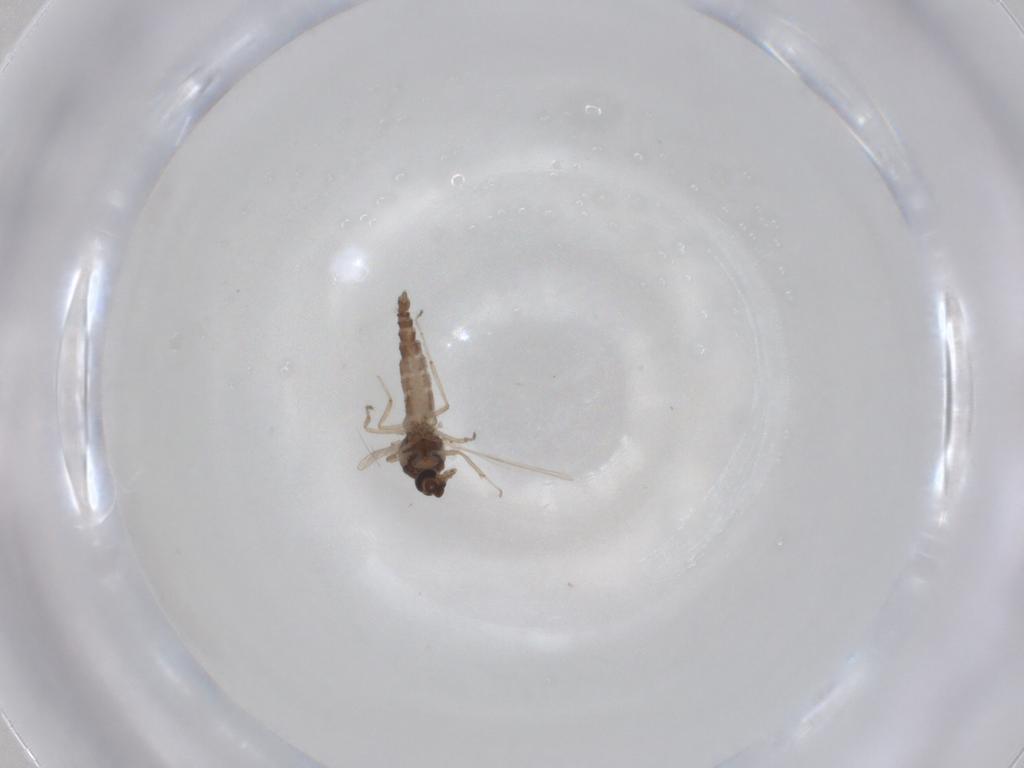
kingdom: Animalia
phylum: Arthropoda
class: Insecta
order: Diptera
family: Ceratopogonidae
